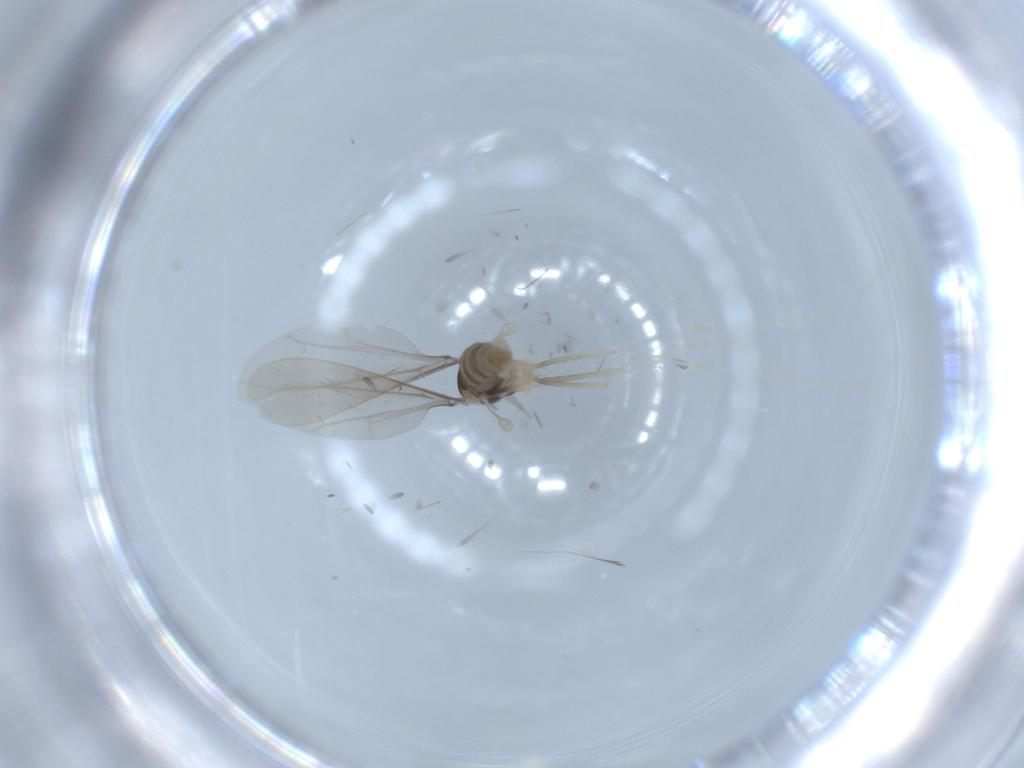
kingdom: Animalia
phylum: Arthropoda
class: Insecta
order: Diptera
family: Cecidomyiidae
